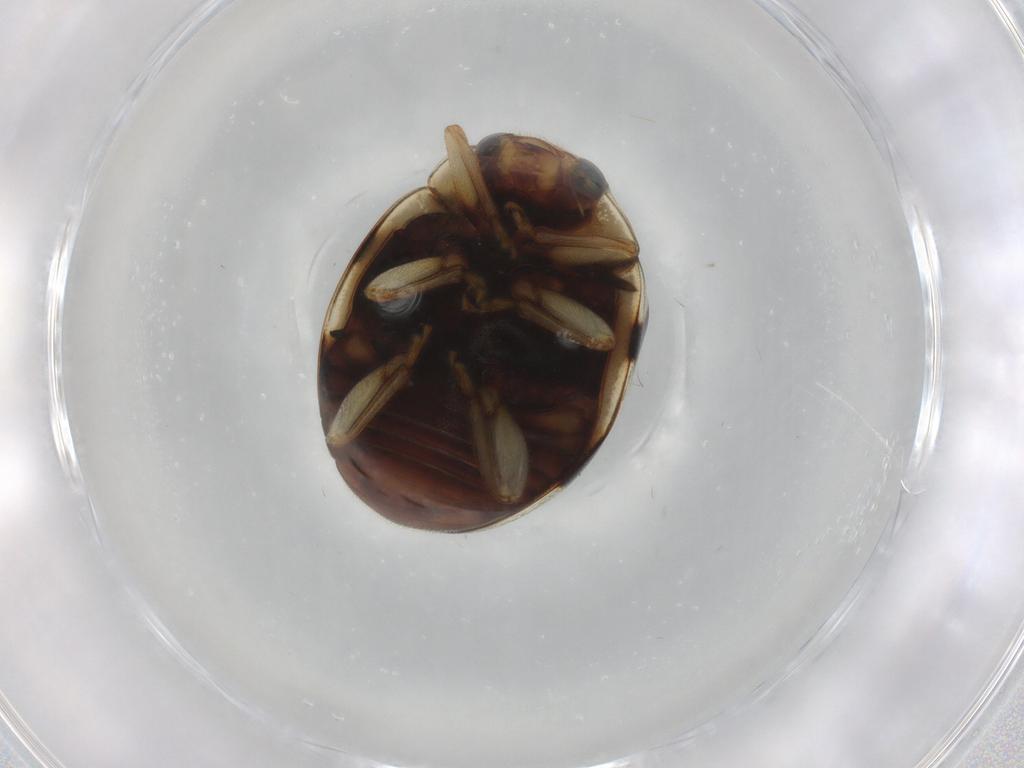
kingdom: Animalia
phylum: Arthropoda
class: Insecta
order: Coleoptera
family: Coccinellidae
